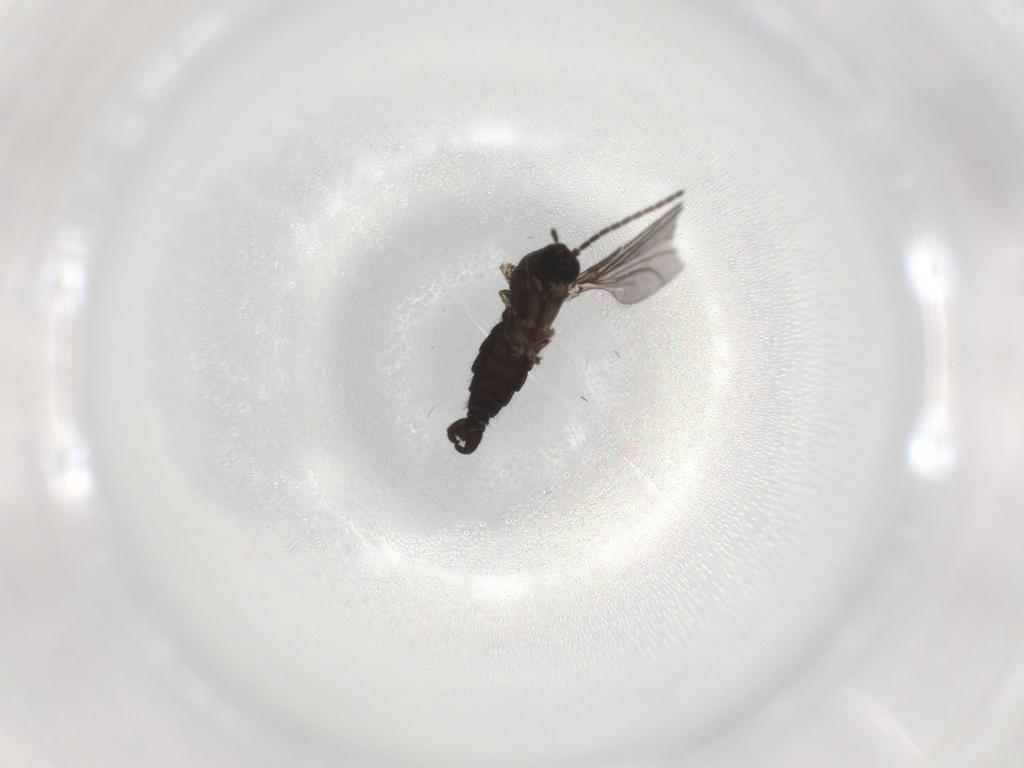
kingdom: Animalia
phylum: Arthropoda
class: Insecta
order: Diptera
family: Sciaridae
